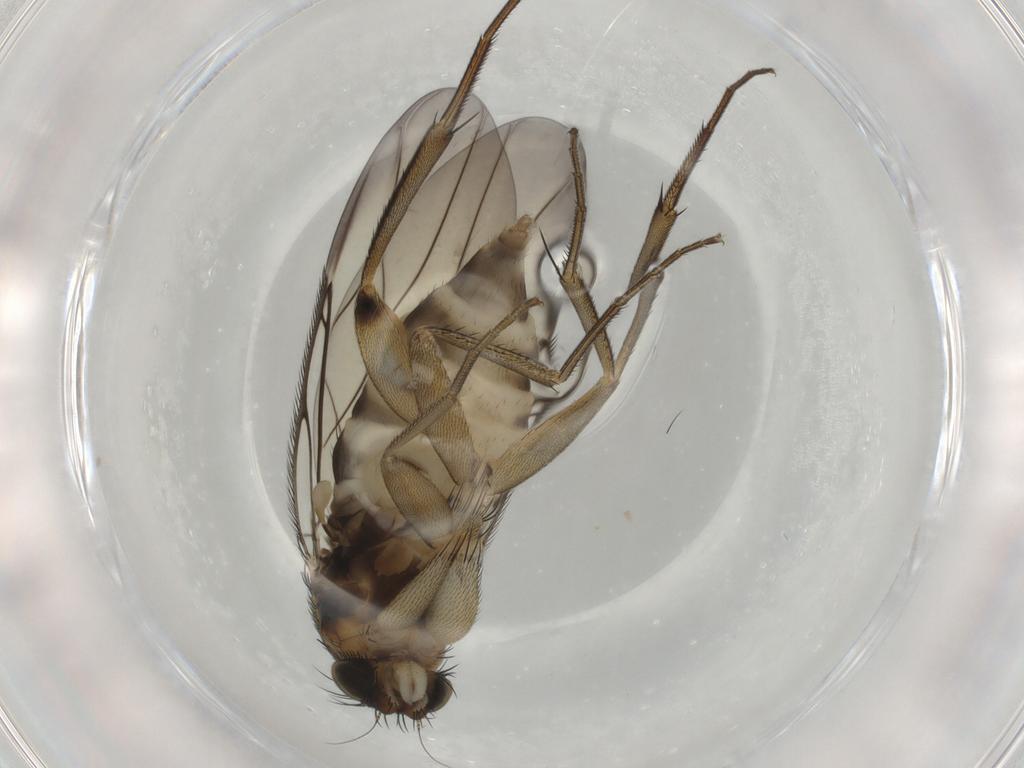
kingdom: Animalia
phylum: Arthropoda
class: Insecta
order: Diptera
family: Phoridae
